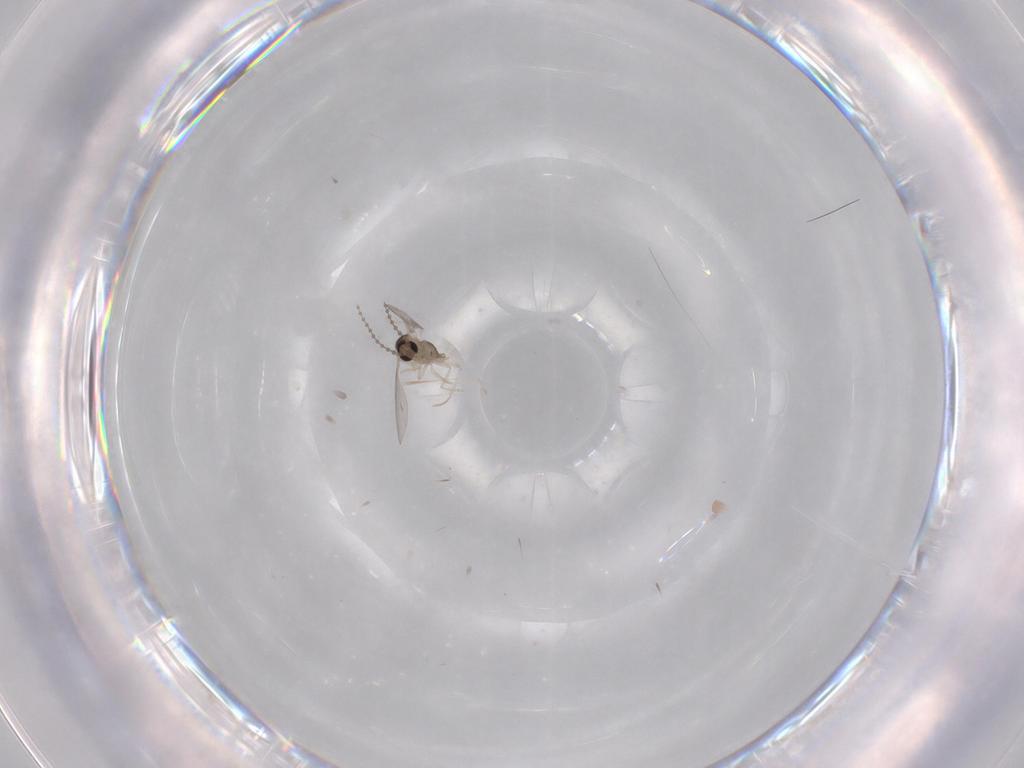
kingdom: Animalia
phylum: Arthropoda
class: Insecta
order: Diptera
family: Cecidomyiidae
